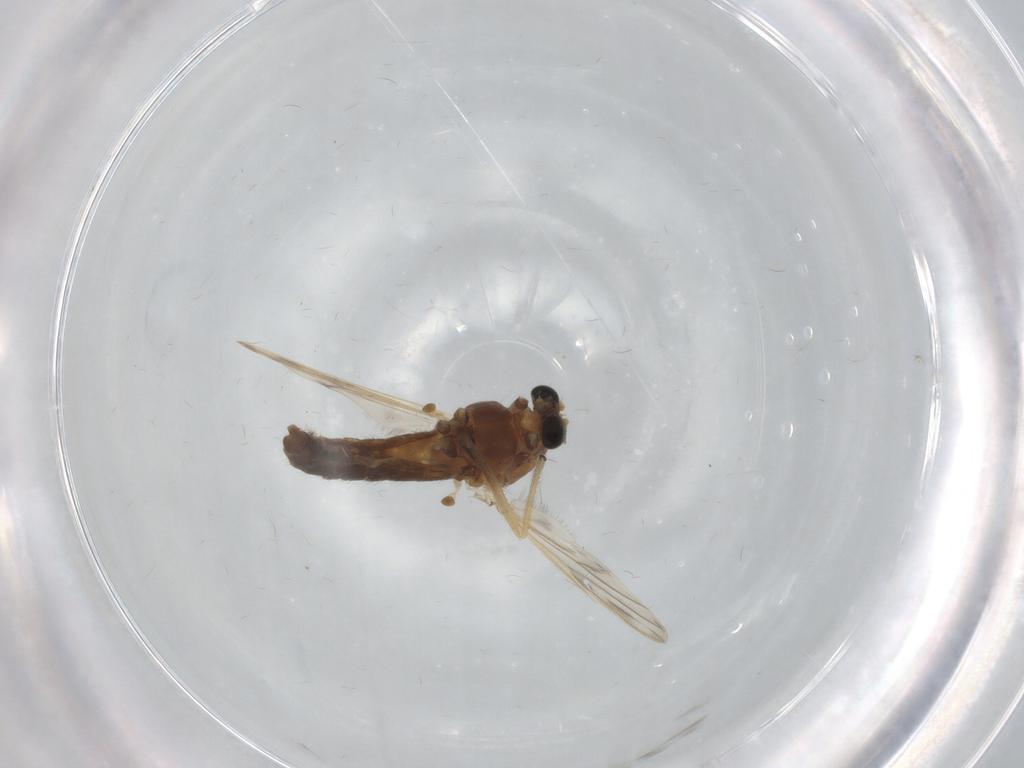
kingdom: Animalia
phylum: Arthropoda
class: Insecta
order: Diptera
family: Chironomidae
